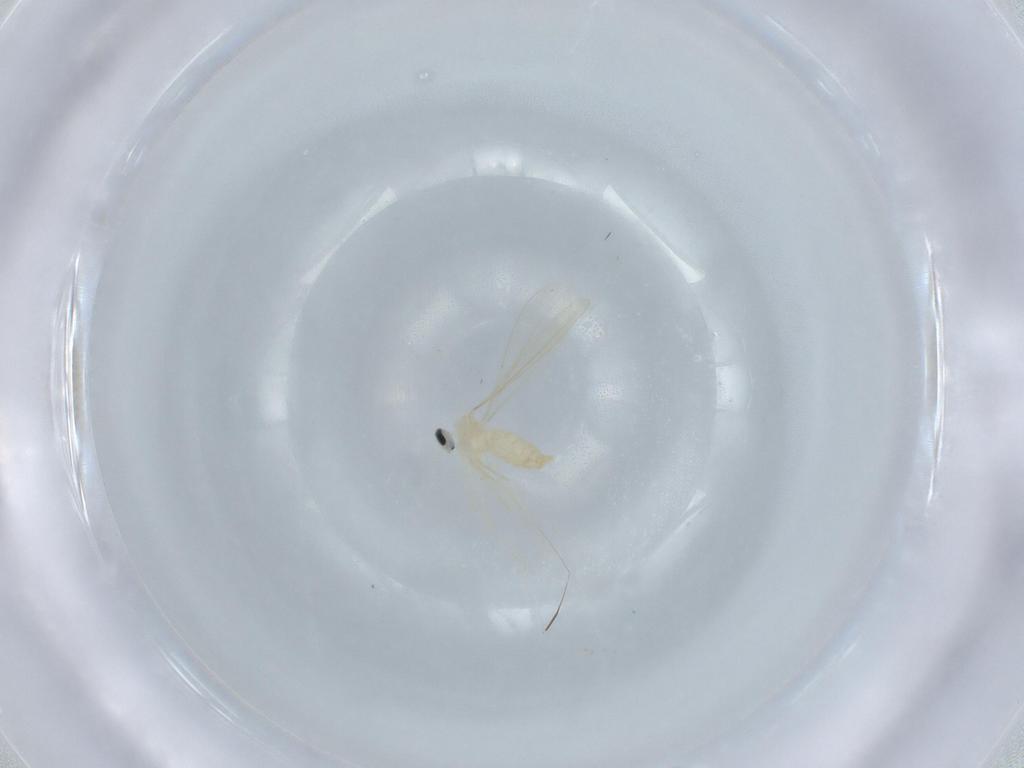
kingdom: Animalia
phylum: Arthropoda
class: Insecta
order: Diptera
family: Cecidomyiidae
